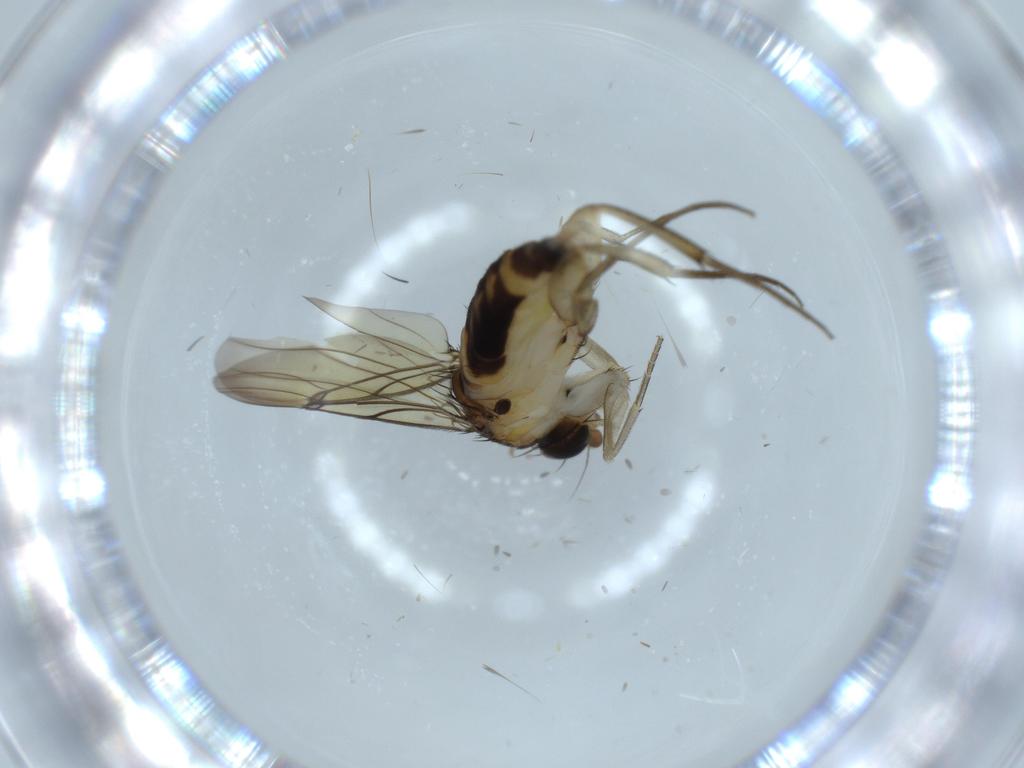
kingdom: Animalia
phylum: Arthropoda
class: Insecta
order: Diptera
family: Phoridae
